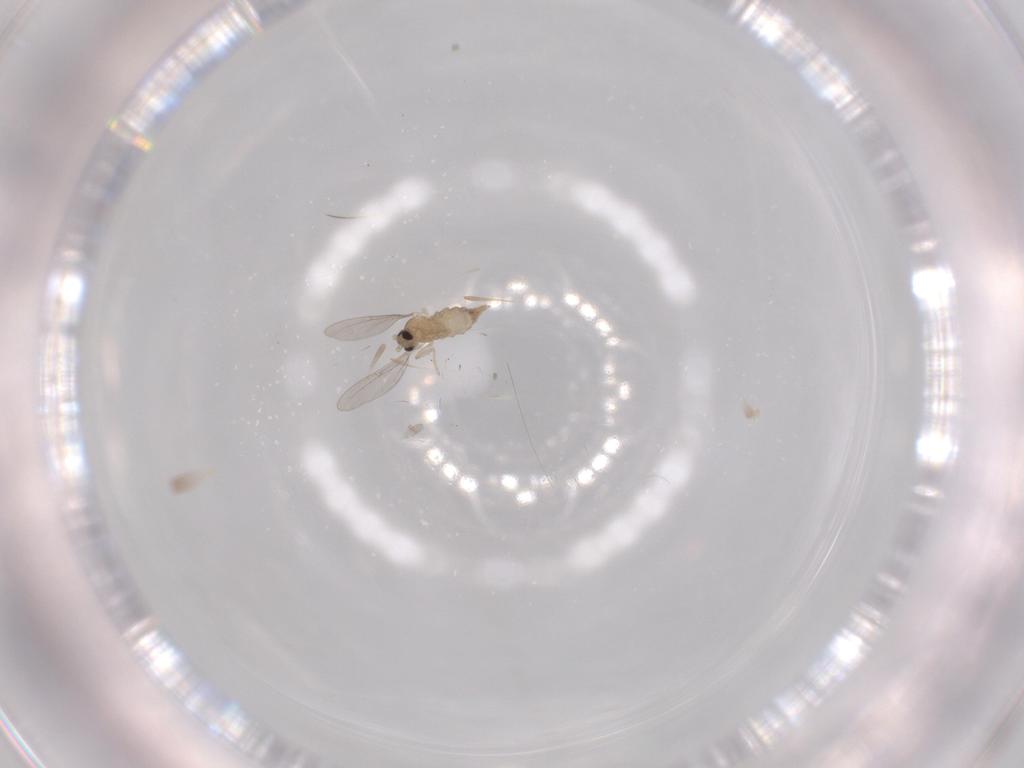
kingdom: Animalia
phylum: Arthropoda
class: Insecta
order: Diptera
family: Cecidomyiidae
